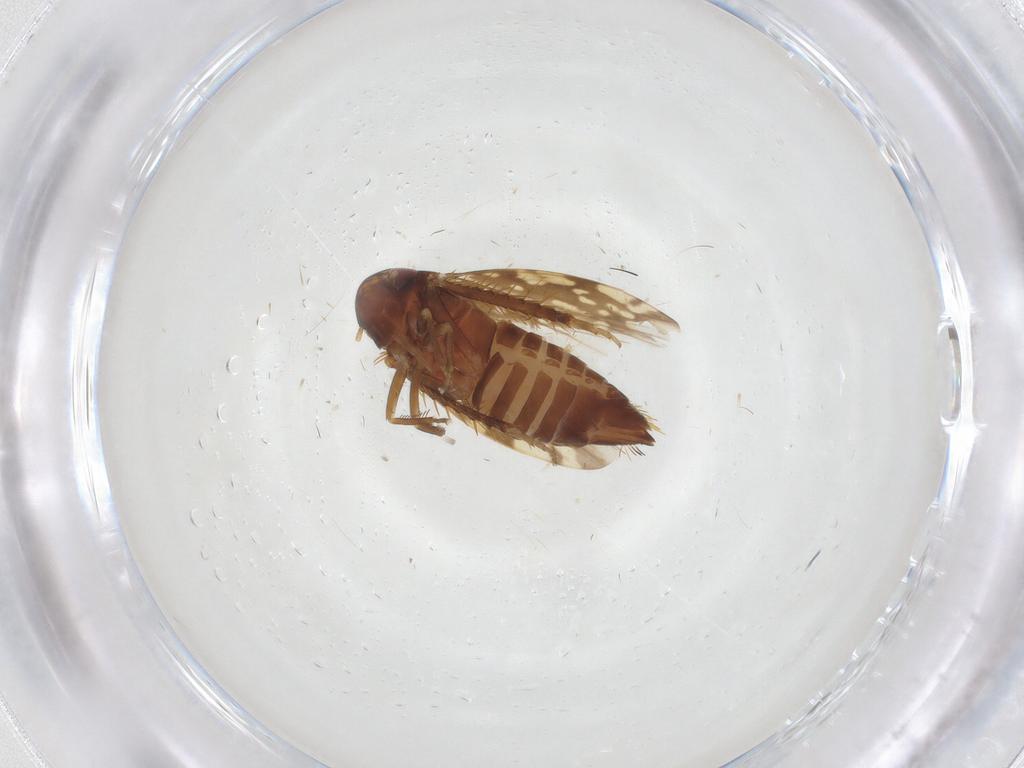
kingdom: Animalia
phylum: Arthropoda
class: Insecta
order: Hemiptera
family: Cicadellidae
